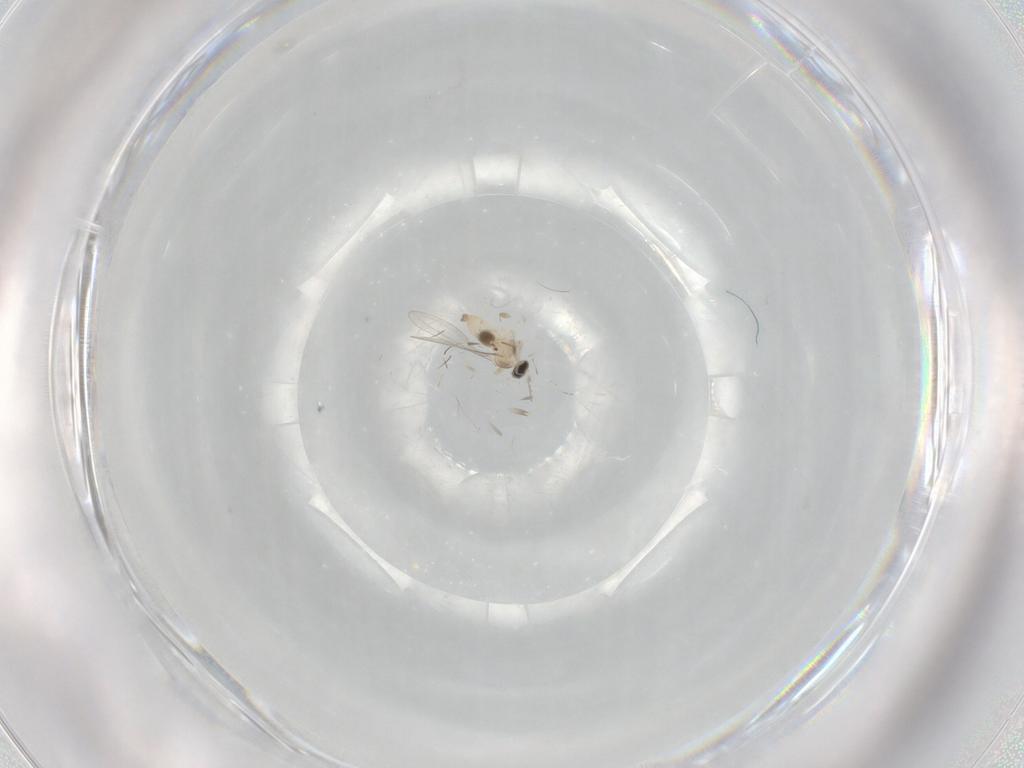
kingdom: Animalia
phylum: Arthropoda
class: Insecta
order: Diptera
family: Cecidomyiidae
